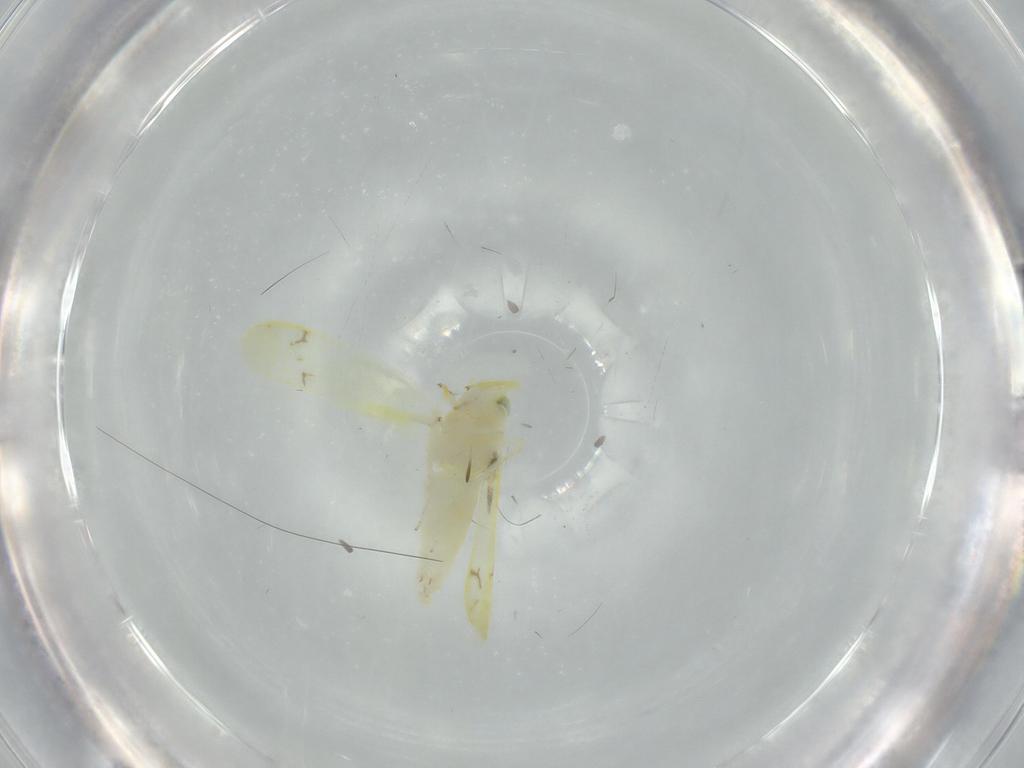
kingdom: Animalia
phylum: Arthropoda
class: Insecta
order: Hemiptera
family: Cicadellidae
